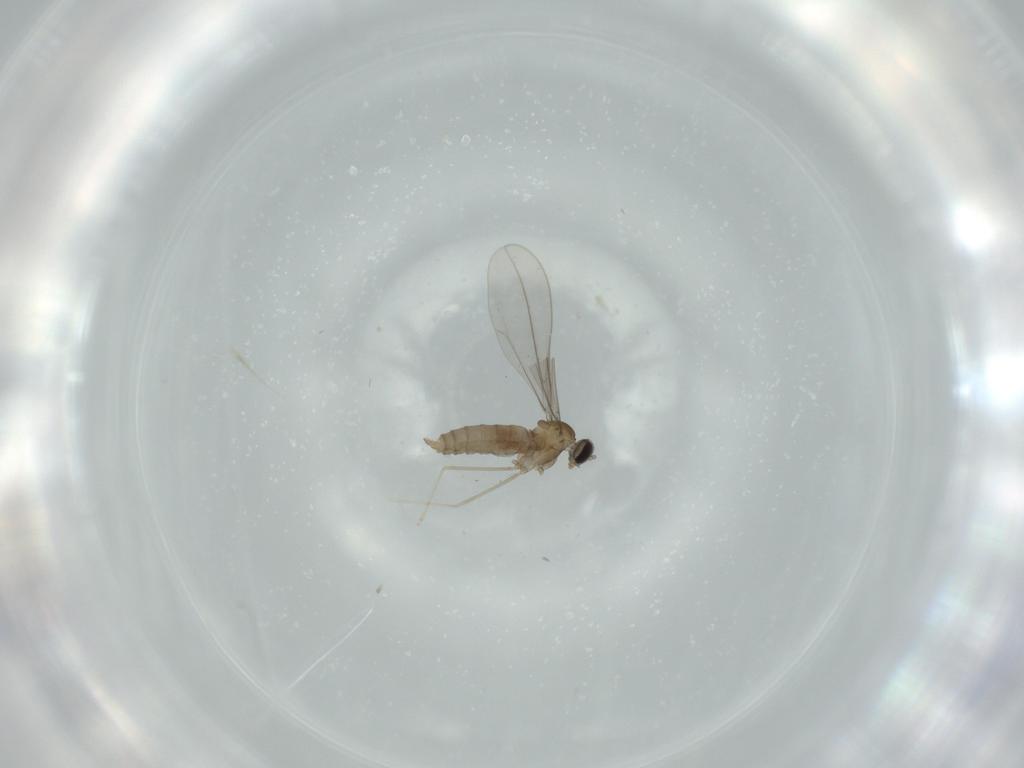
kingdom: Animalia
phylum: Arthropoda
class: Insecta
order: Diptera
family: Cecidomyiidae
